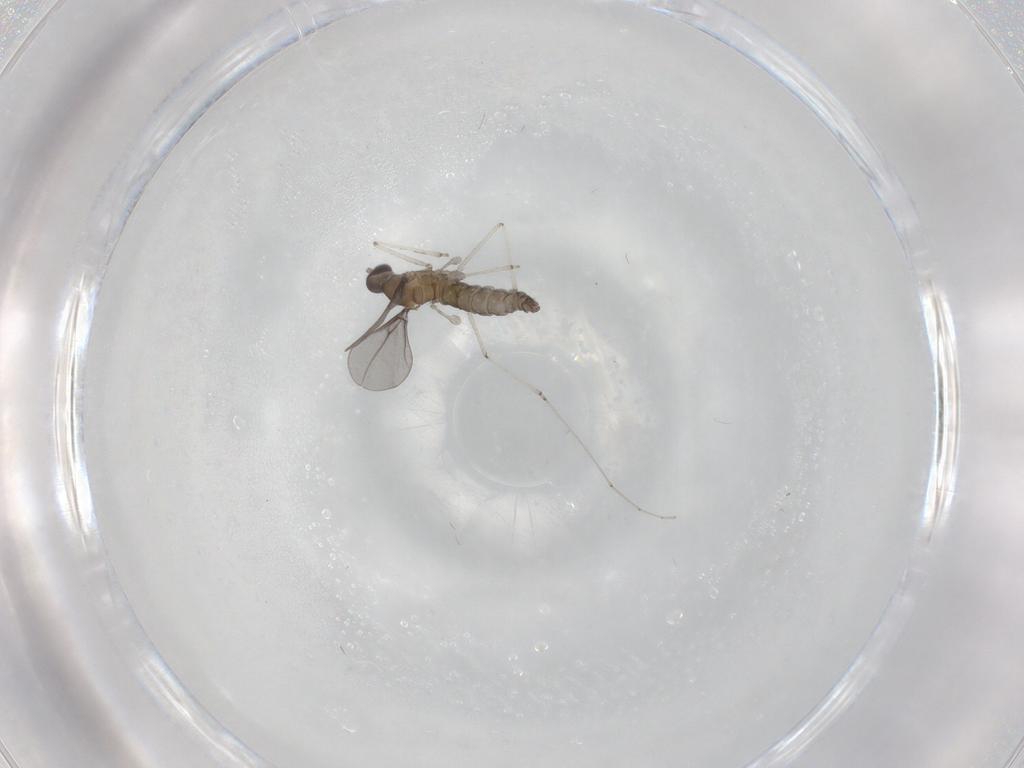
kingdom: Animalia
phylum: Arthropoda
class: Insecta
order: Diptera
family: Cecidomyiidae
